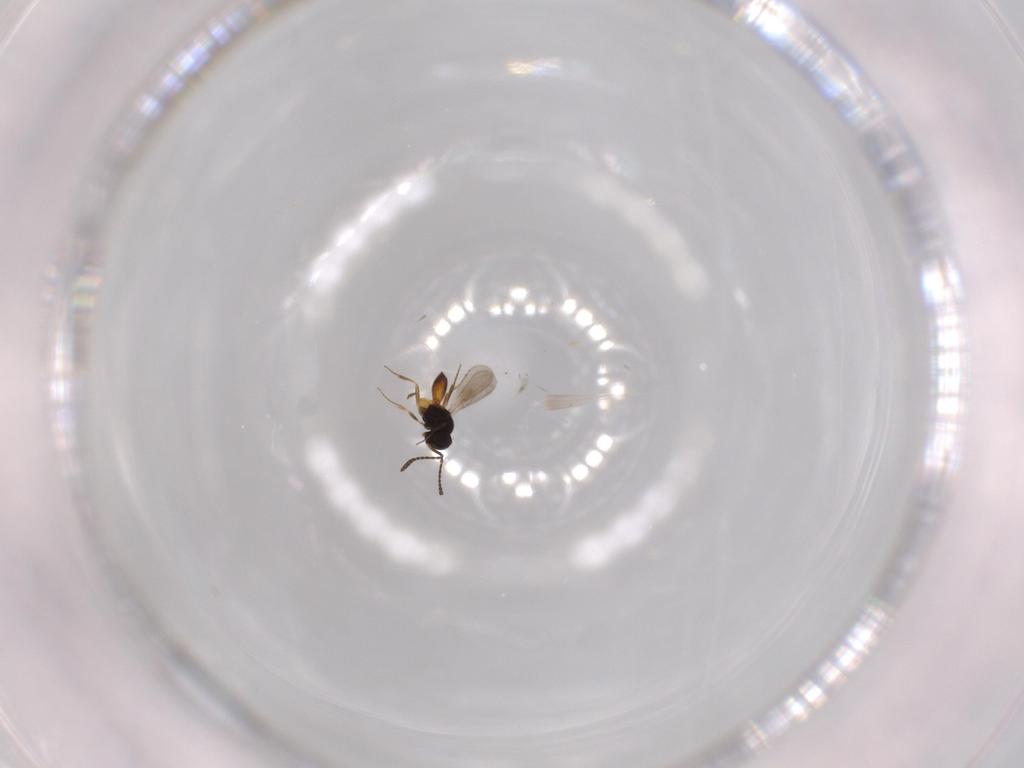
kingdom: Animalia
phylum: Arthropoda
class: Insecta
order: Hymenoptera
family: Scelionidae
